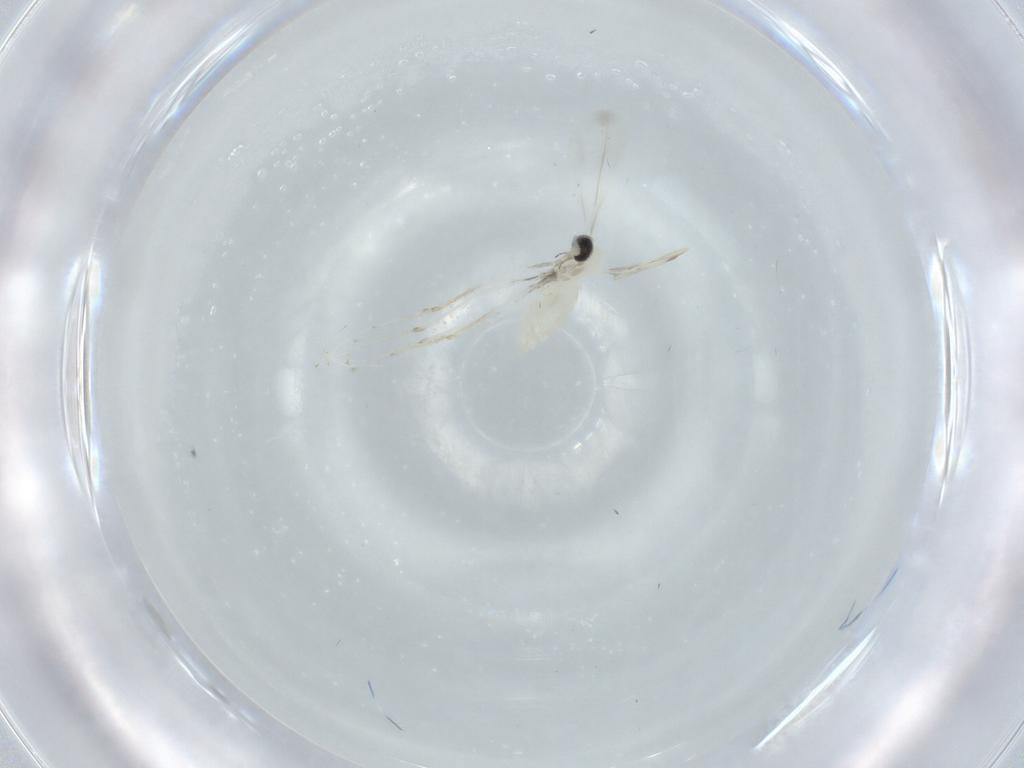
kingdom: Animalia
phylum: Arthropoda
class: Insecta
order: Diptera
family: Cecidomyiidae
